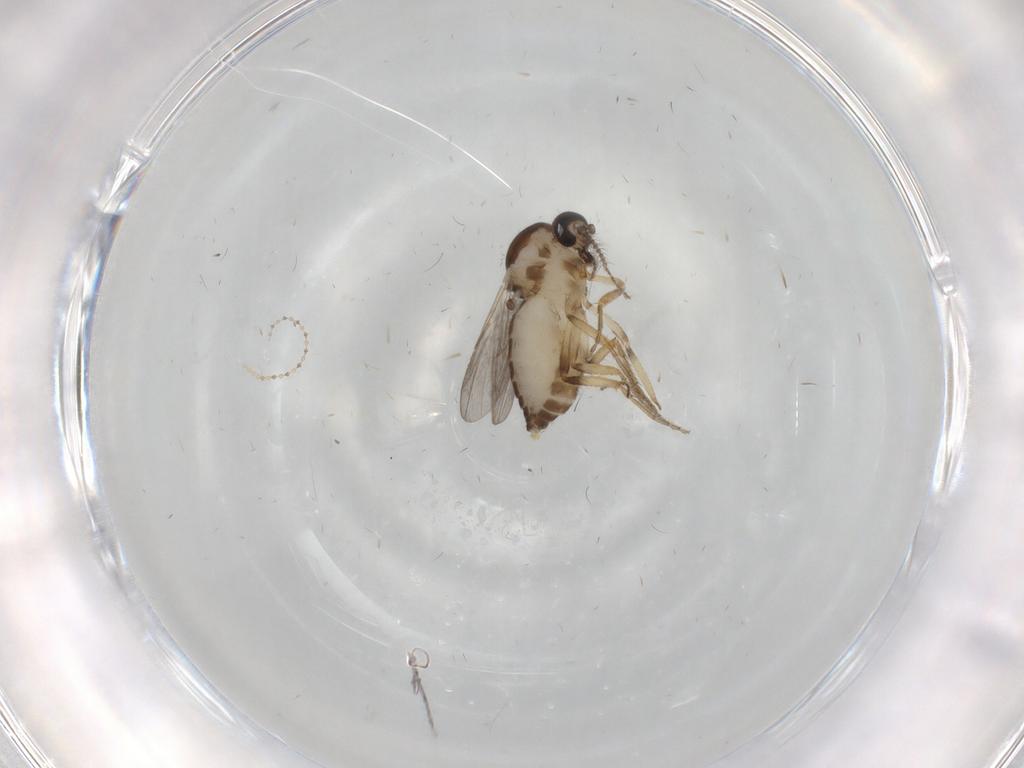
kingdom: Animalia
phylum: Arthropoda
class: Insecta
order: Diptera
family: Ceratopogonidae
